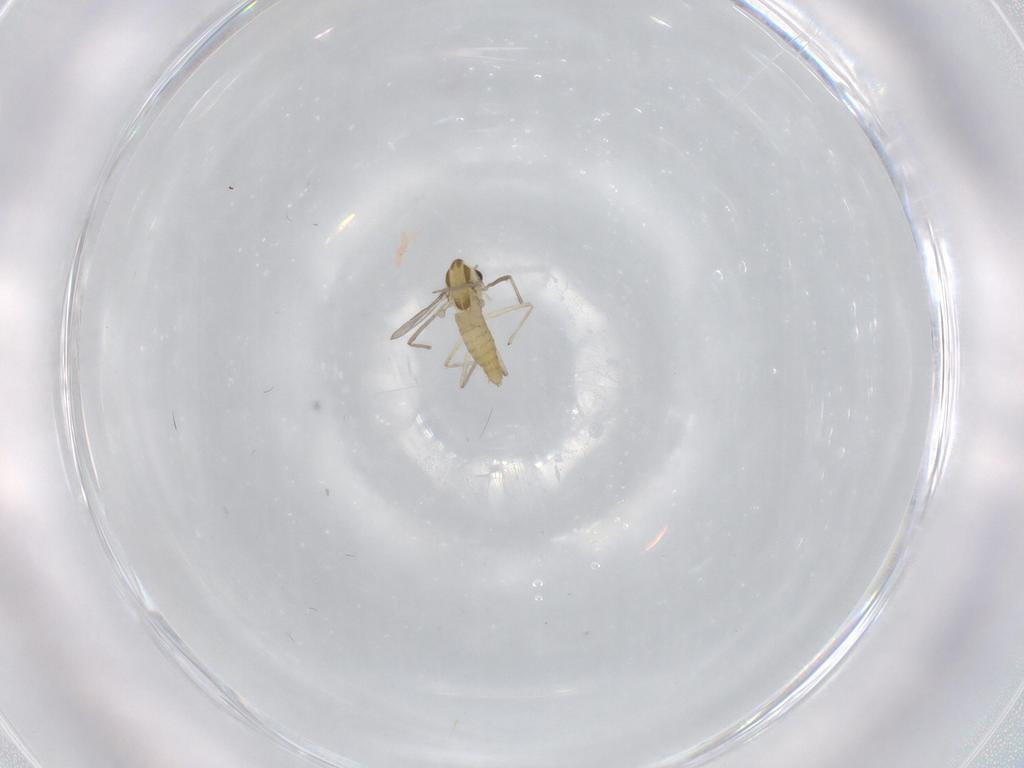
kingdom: Animalia
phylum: Arthropoda
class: Insecta
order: Diptera
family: Chironomidae
